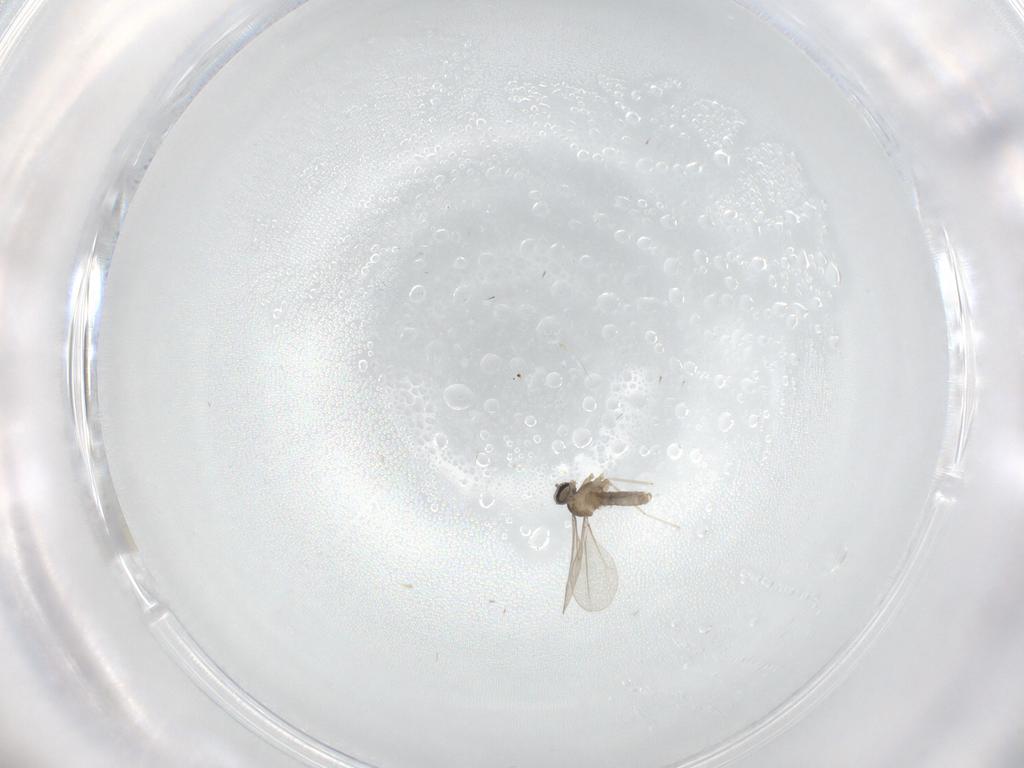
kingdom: Animalia
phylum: Arthropoda
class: Insecta
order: Diptera
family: Cecidomyiidae
